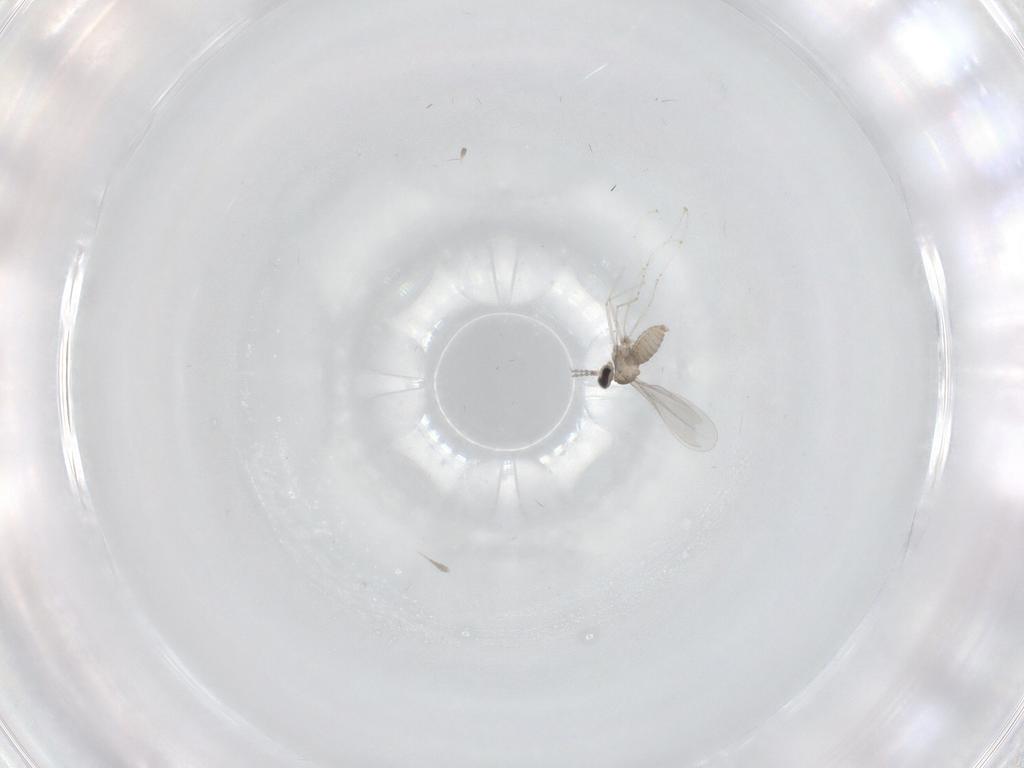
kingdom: Animalia
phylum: Arthropoda
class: Insecta
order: Diptera
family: Cecidomyiidae
